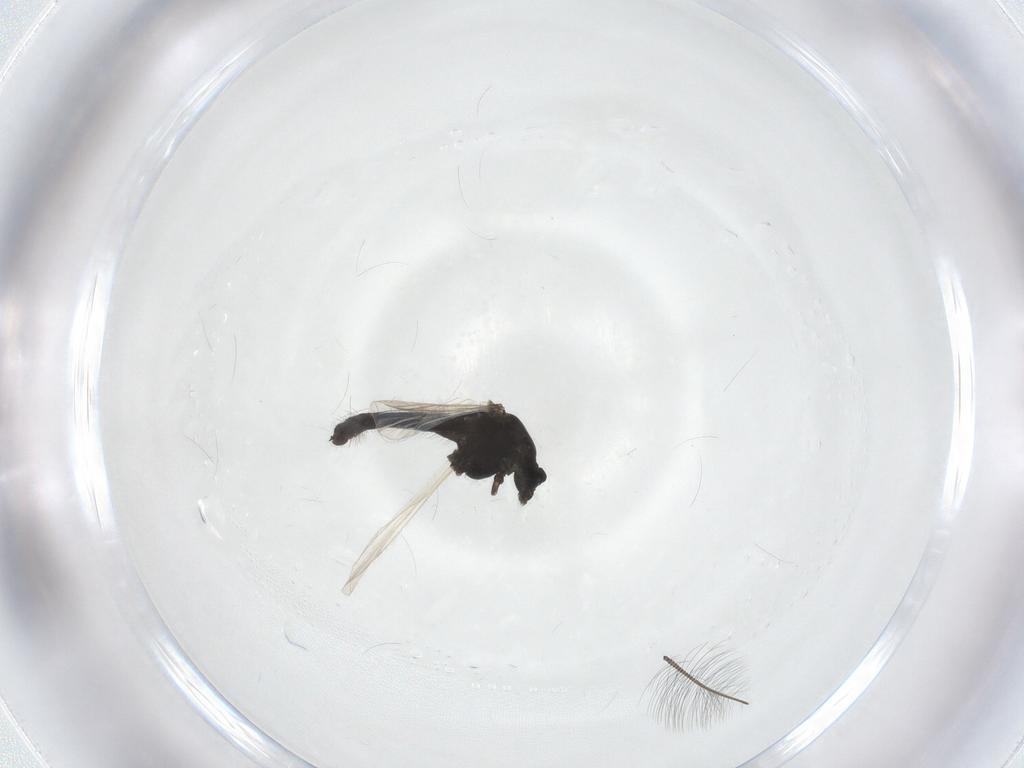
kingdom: Animalia
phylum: Arthropoda
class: Insecta
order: Diptera
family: Chironomidae
